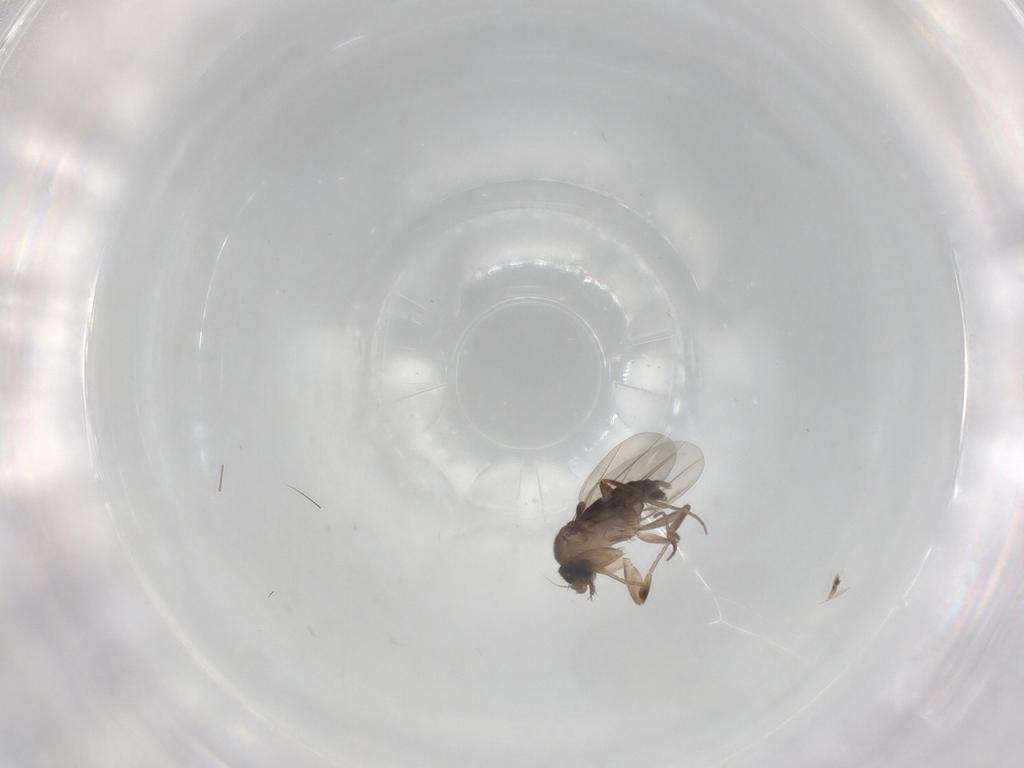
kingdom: Animalia
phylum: Arthropoda
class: Insecta
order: Diptera
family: Phoridae
